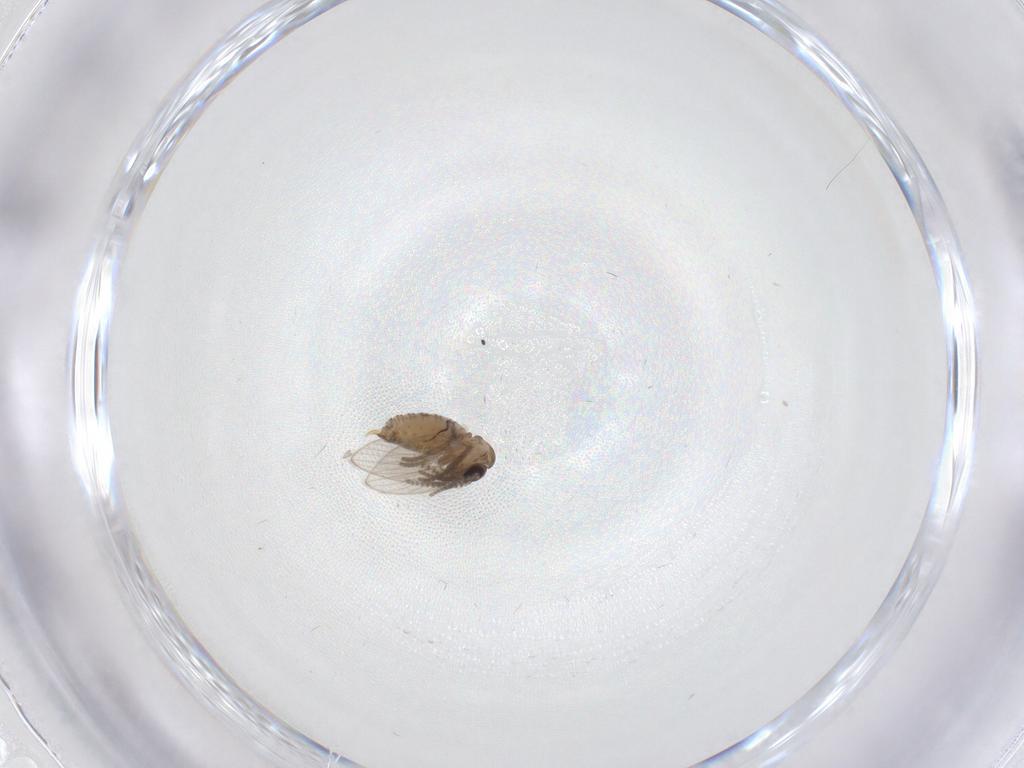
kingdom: Animalia
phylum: Arthropoda
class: Insecta
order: Diptera
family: Psychodidae
